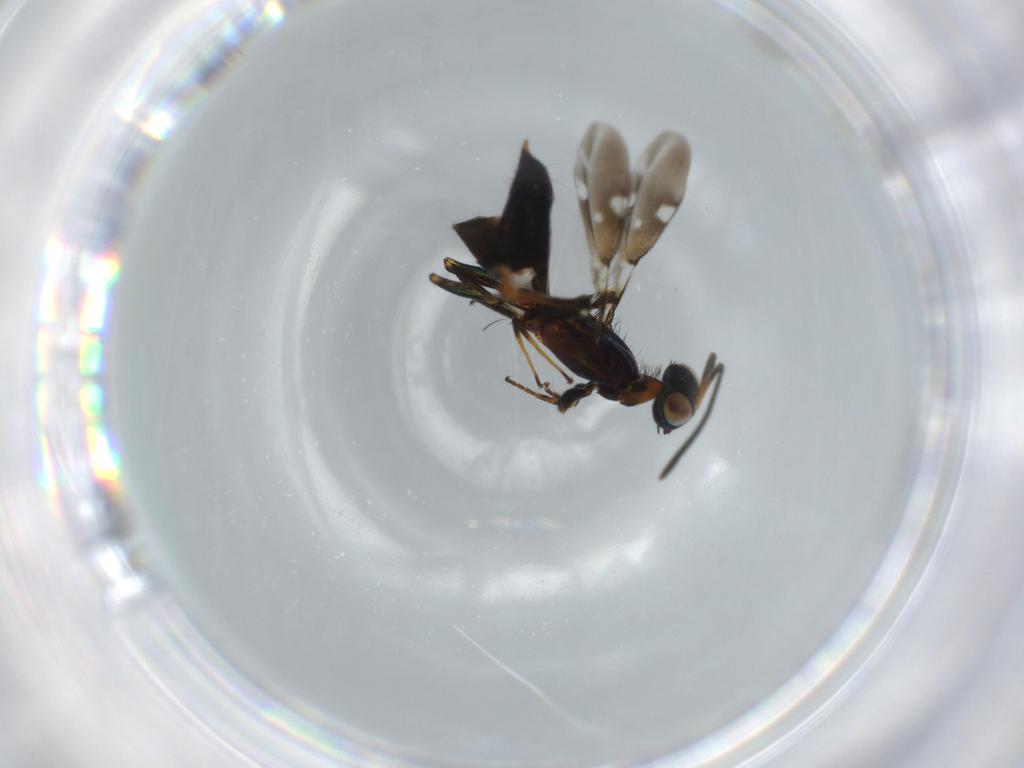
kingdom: Animalia
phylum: Arthropoda
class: Insecta
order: Hymenoptera
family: Eupelmidae
